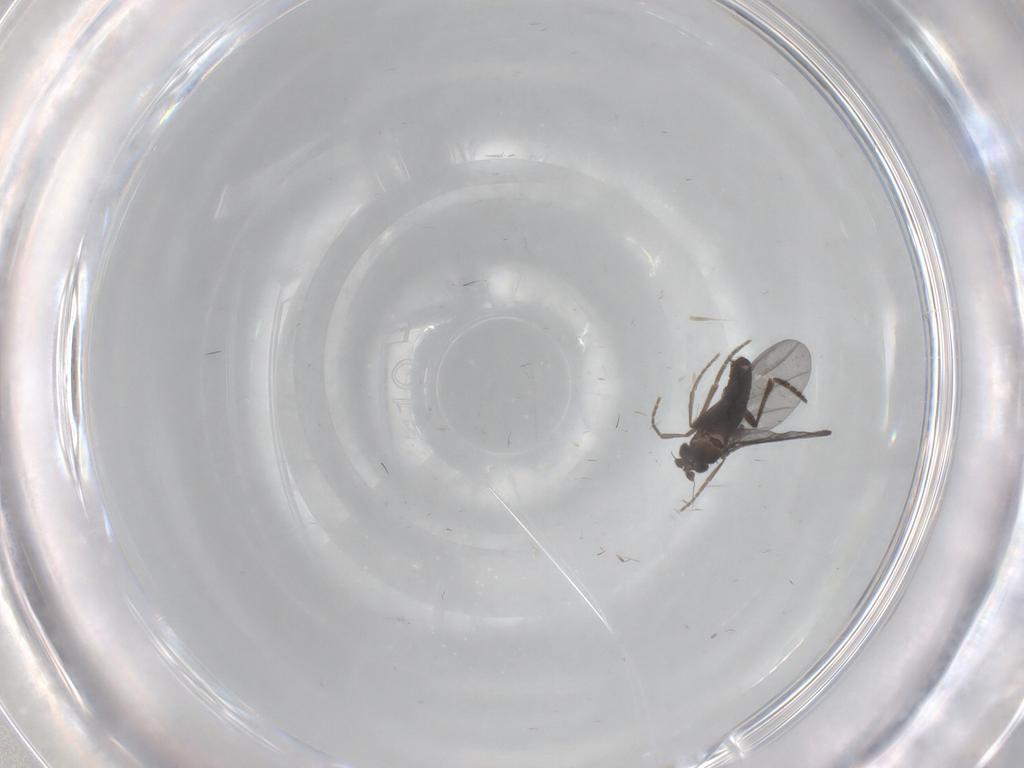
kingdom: Animalia
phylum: Arthropoda
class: Insecta
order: Diptera
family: Phoridae
